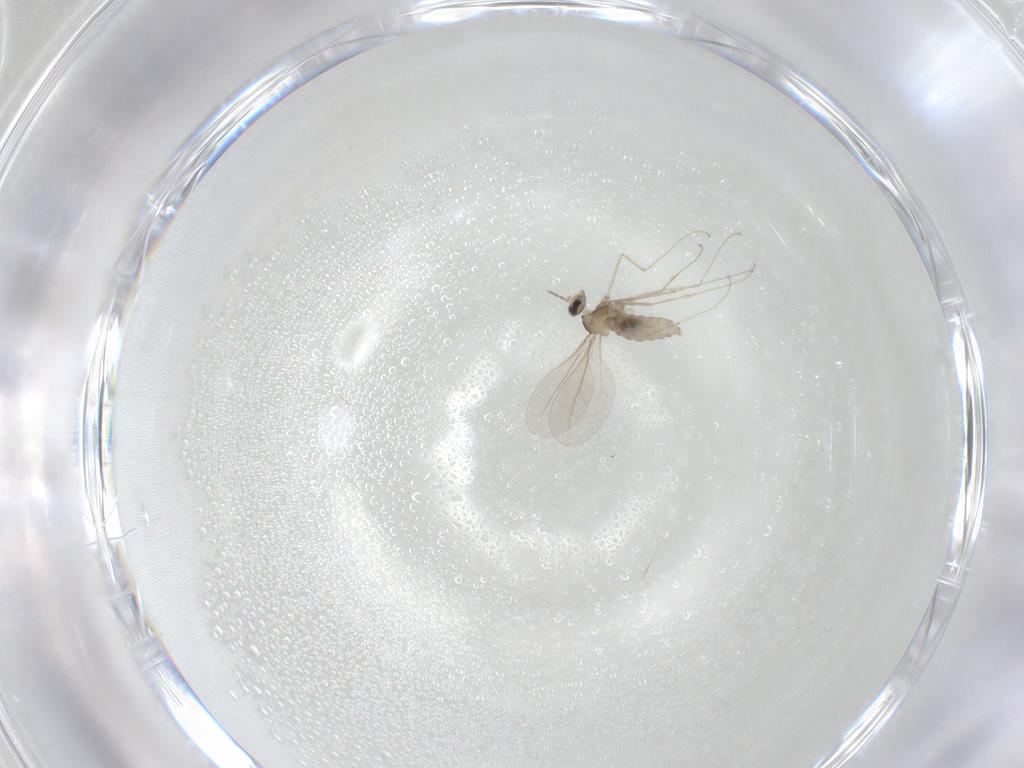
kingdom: Animalia
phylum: Arthropoda
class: Insecta
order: Diptera
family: Cecidomyiidae
